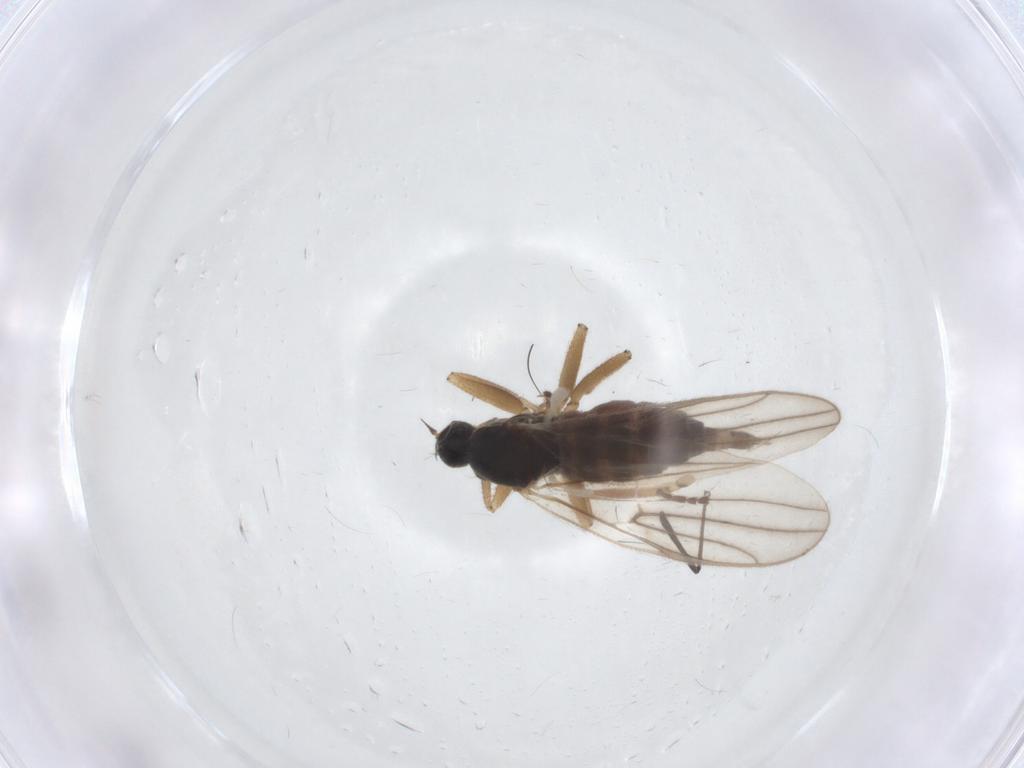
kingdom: Animalia
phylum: Arthropoda
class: Insecta
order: Diptera
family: Hybotidae
